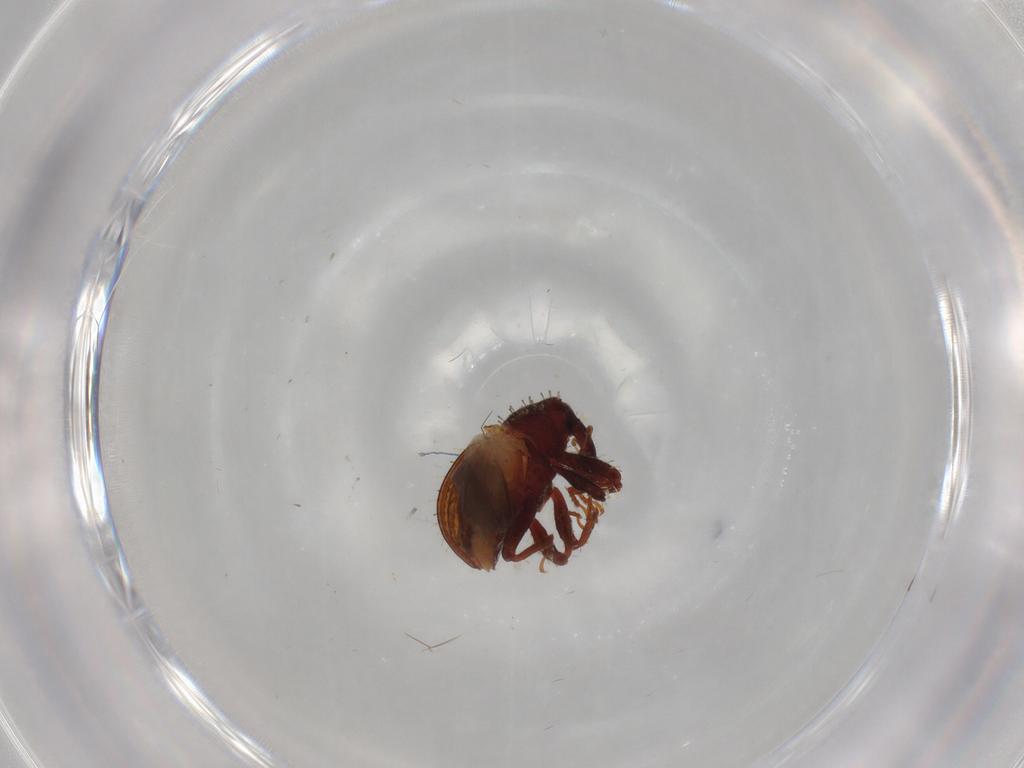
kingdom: Animalia
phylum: Arthropoda
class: Insecta
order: Coleoptera
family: Curculionidae
